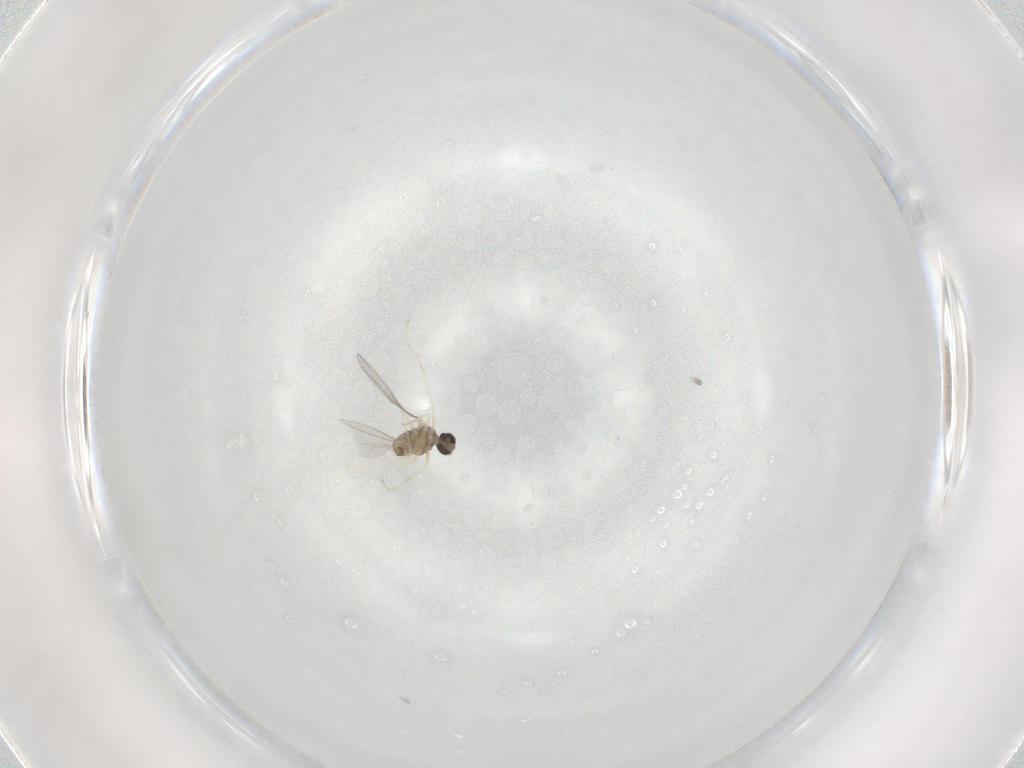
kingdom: Animalia
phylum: Arthropoda
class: Insecta
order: Diptera
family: Cecidomyiidae
